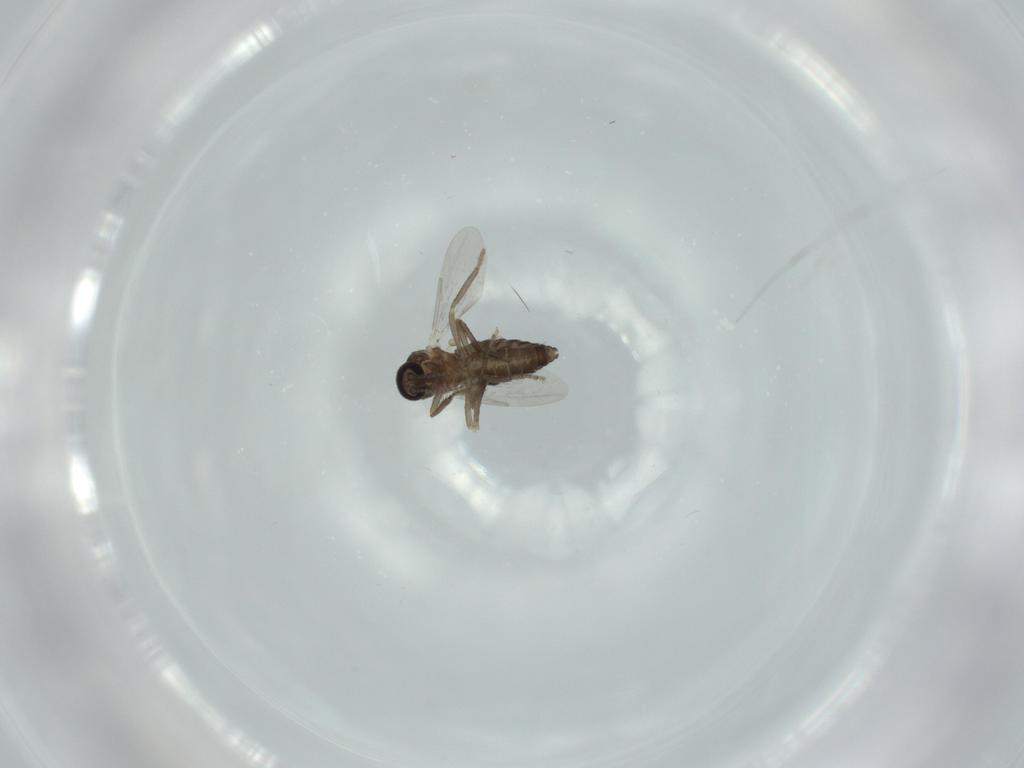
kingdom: Animalia
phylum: Arthropoda
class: Insecta
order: Diptera
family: Ceratopogonidae
